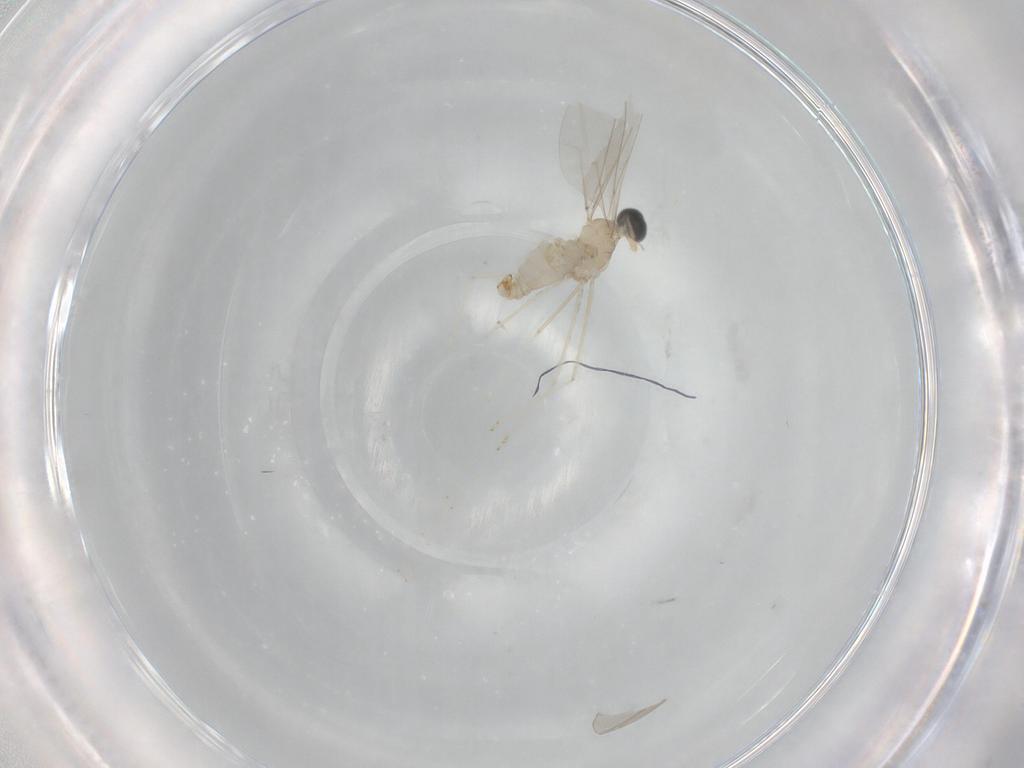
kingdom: Animalia
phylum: Arthropoda
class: Insecta
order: Diptera
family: Cecidomyiidae
